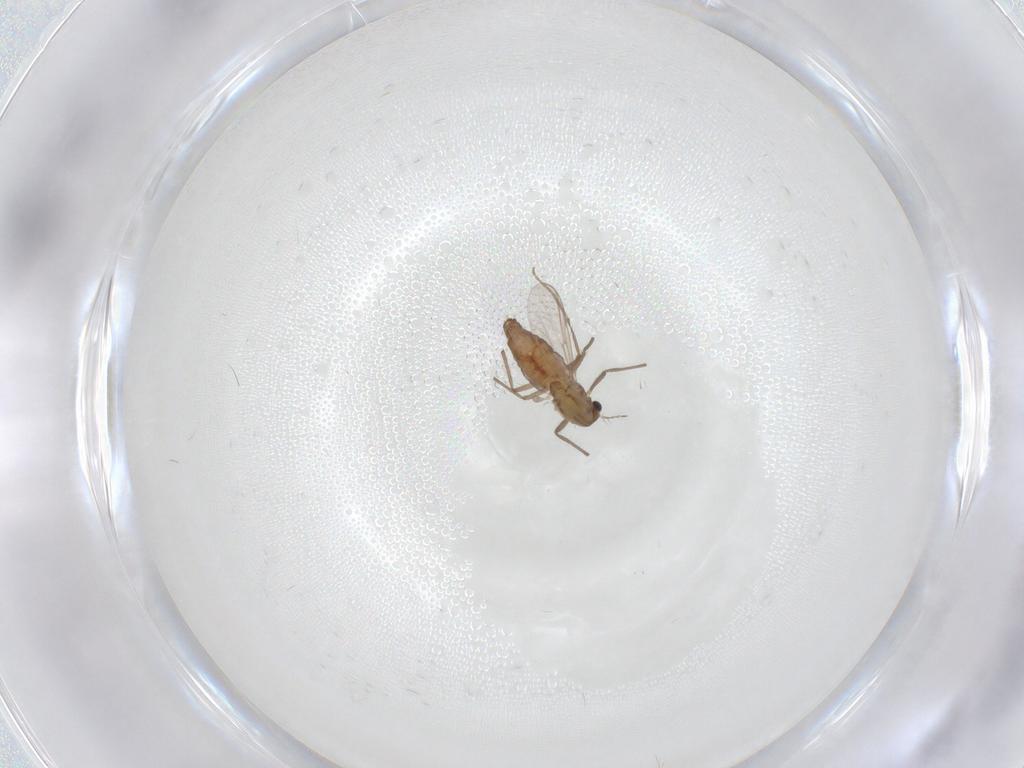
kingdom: Animalia
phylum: Arthropoda
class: Insecta
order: Diptera
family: Chironomidae
